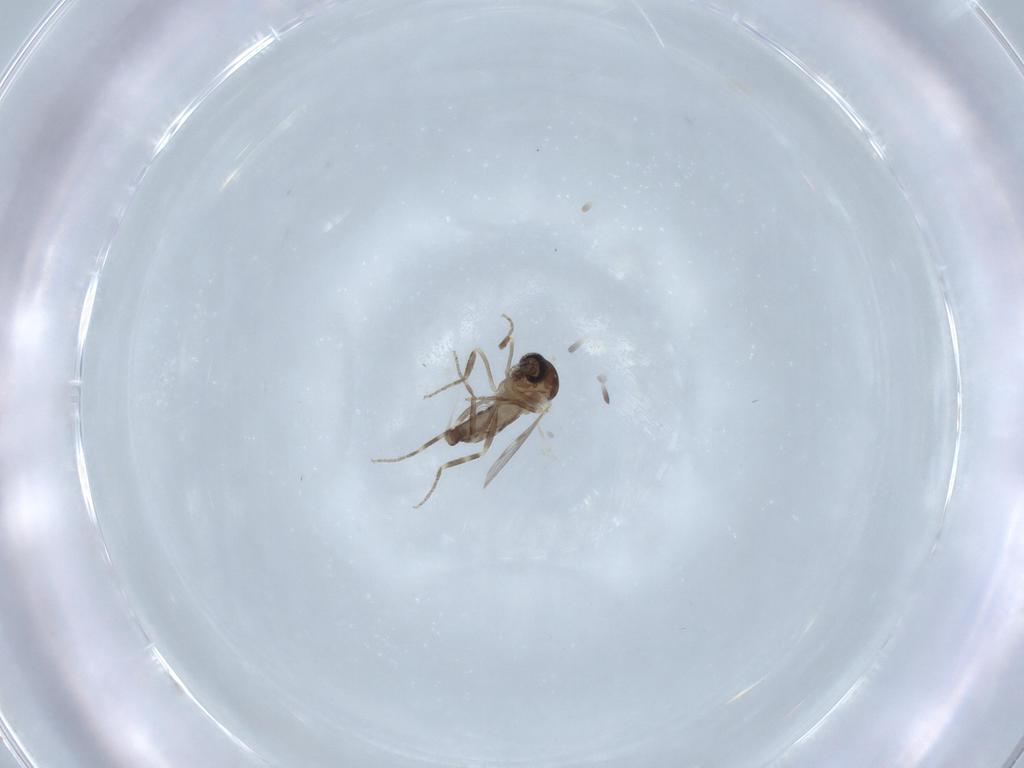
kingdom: Animalia
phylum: Arthropoda
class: Insecta
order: Diptera
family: Ceratopogonidae
